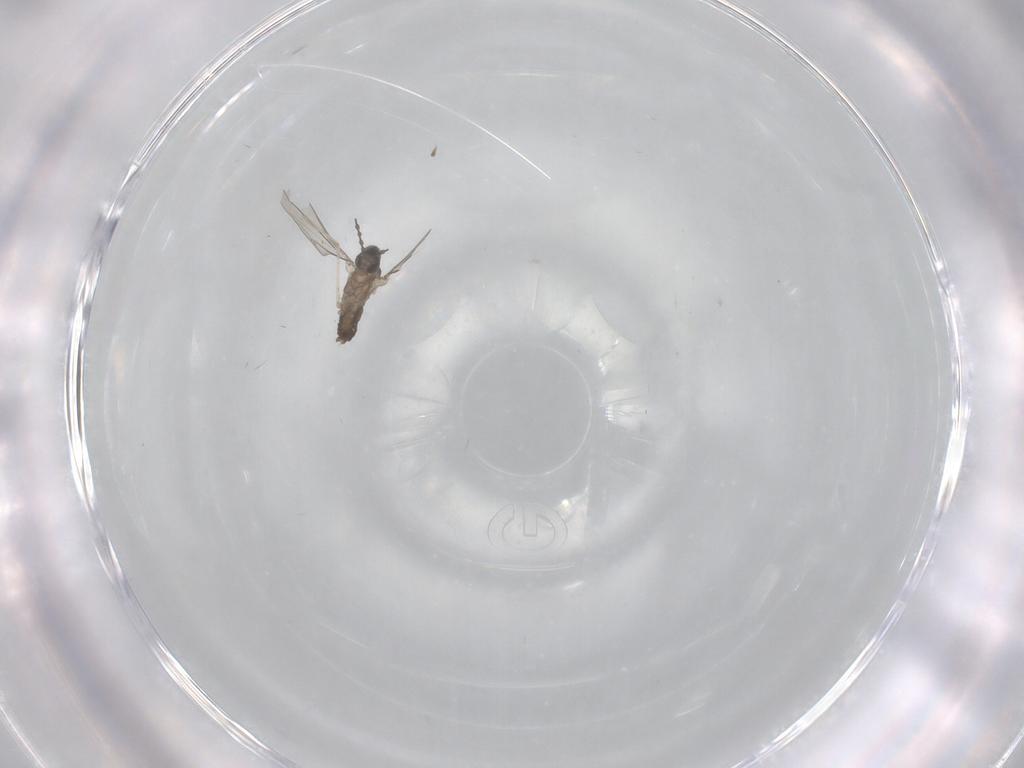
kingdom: Animalia
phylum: Arthropoda
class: Insecta
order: Diptera
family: Cecidomyiidae
